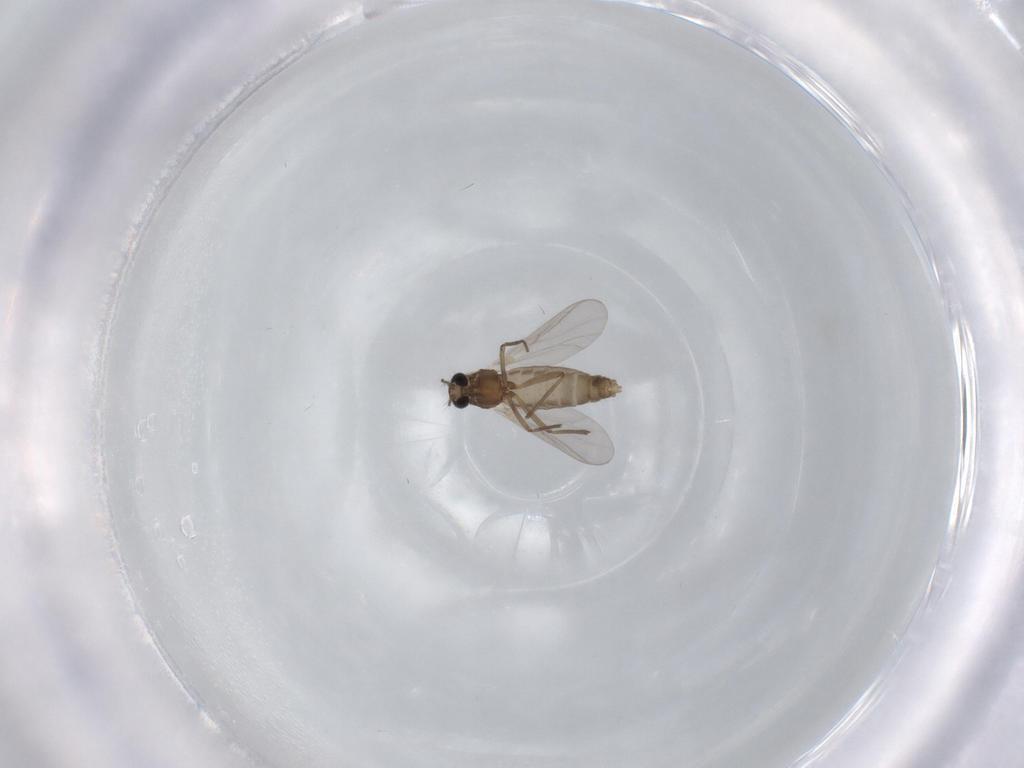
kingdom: Animalia
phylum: Arthropoda
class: Insecta
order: Diptera
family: Chironomidae
